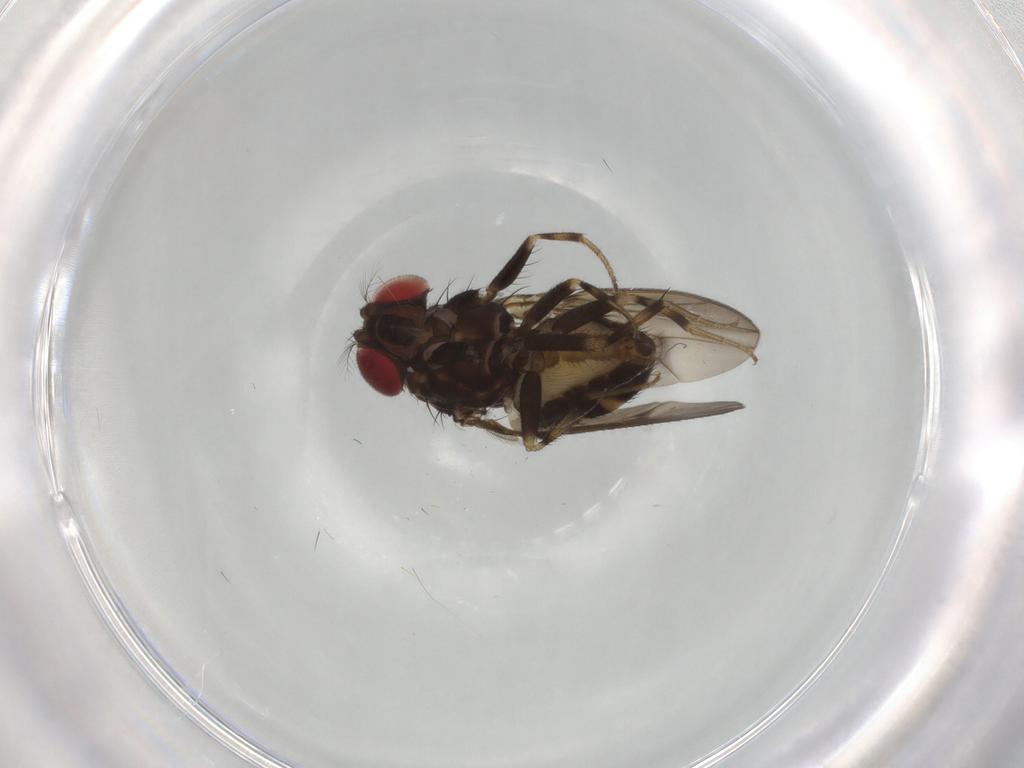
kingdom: Animalia
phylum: Arthropoda
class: Insecta
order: Diptera
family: Drosophilidae
